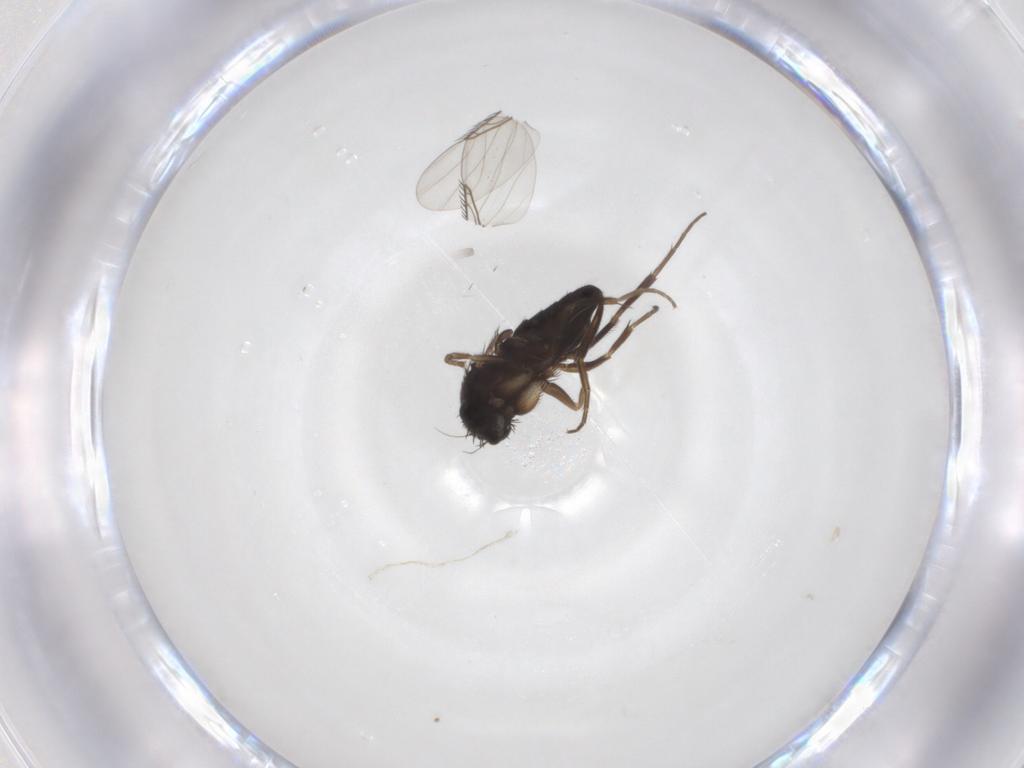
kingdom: Animalia
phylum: Arthropoda
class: Insecta
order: Diptera
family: Phoridae
